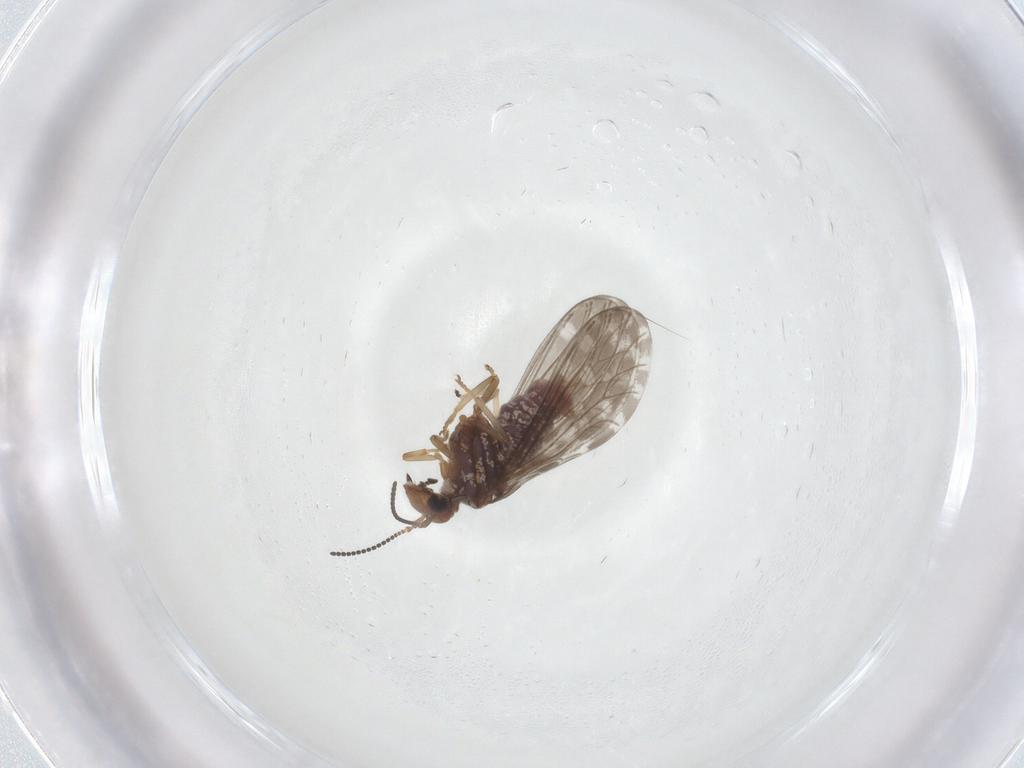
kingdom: Animalia
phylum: Arthropoda
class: Insecta
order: Neuroptera
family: Coniopterygidae
